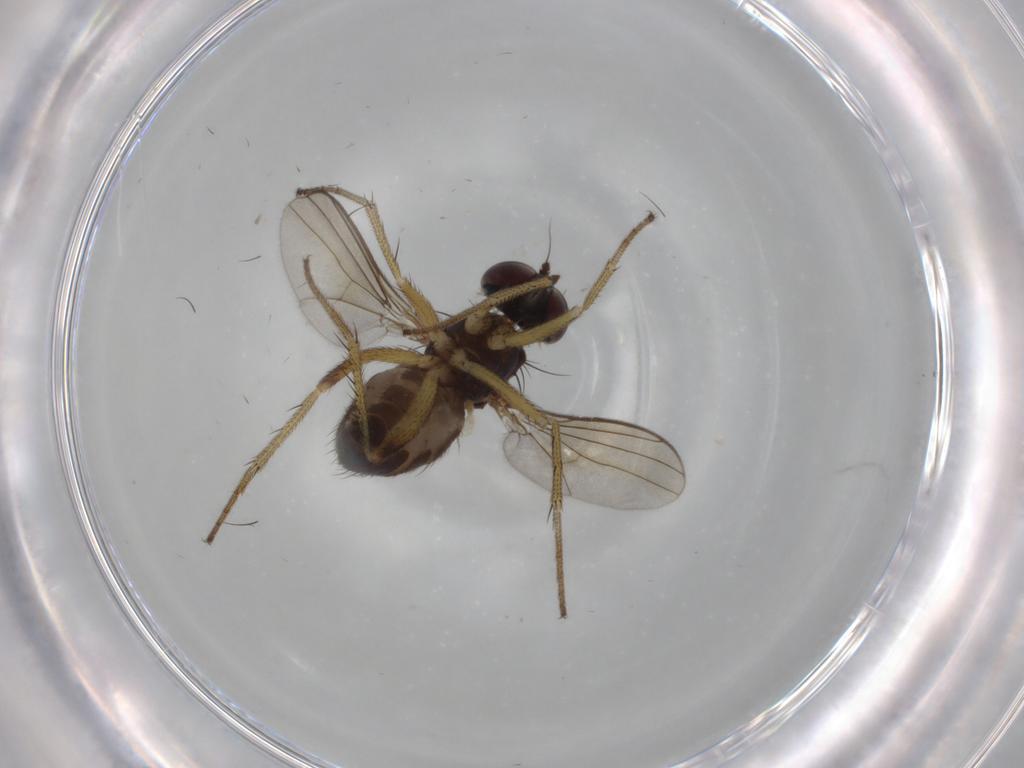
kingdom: Animalia
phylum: Arthropoda
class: Insecta
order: Diptera
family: Dolichopodidae
